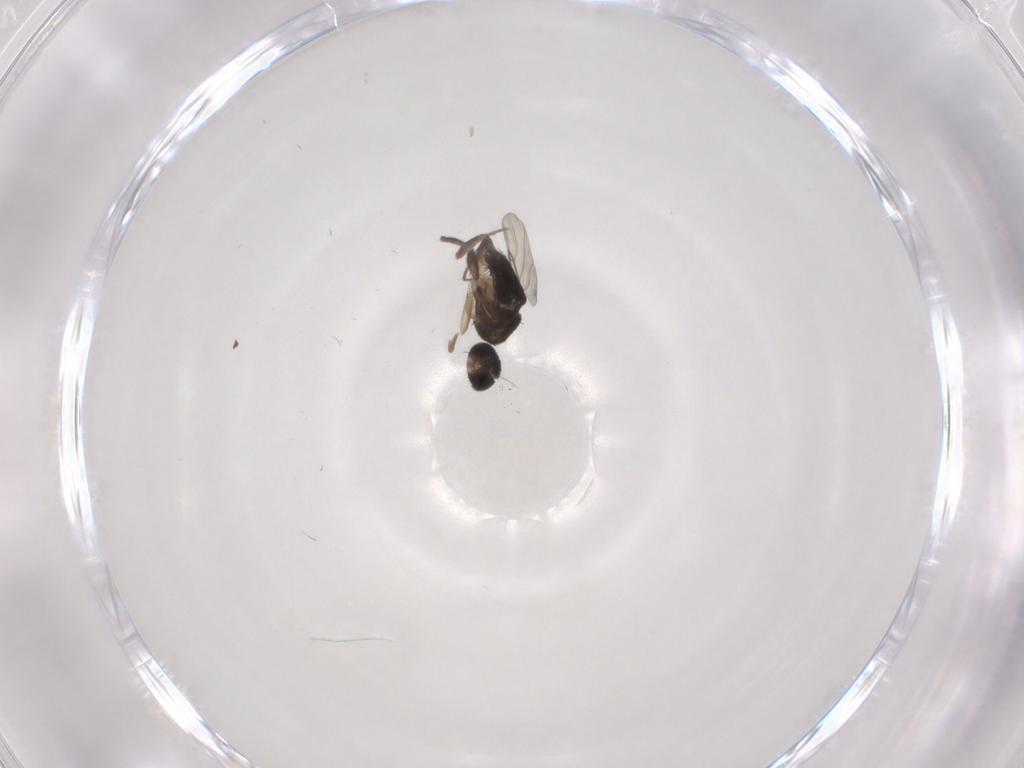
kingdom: Animalia
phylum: Arthropoda
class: Insecta
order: Diptera
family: Phoridae
